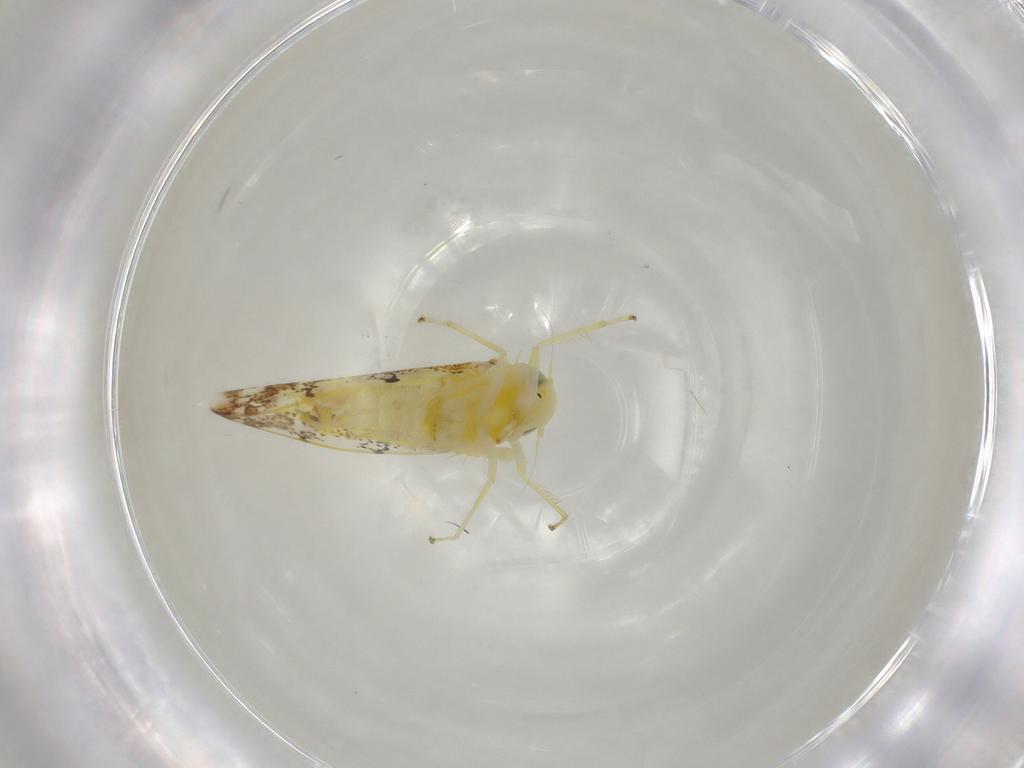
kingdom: Animalia
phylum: Arthropoda
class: Insecta
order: Hemiptera
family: Cicadellidae
